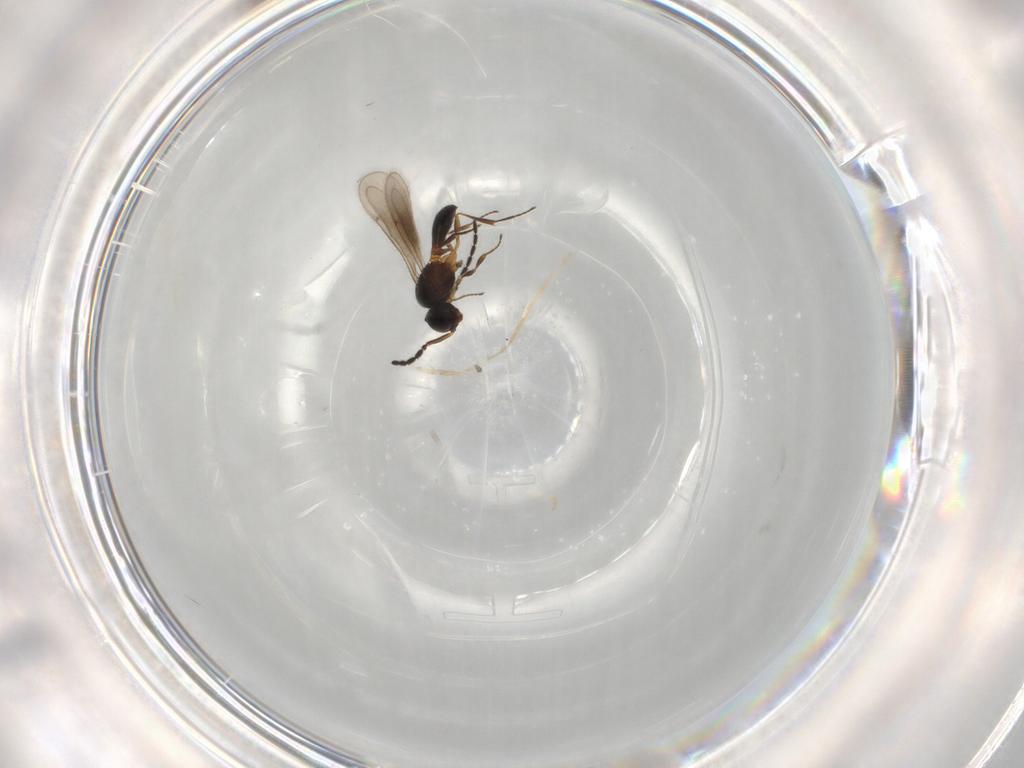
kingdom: Animalia
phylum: Arthropoda
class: Insecta
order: Hymenoptera
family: Scelionidae
